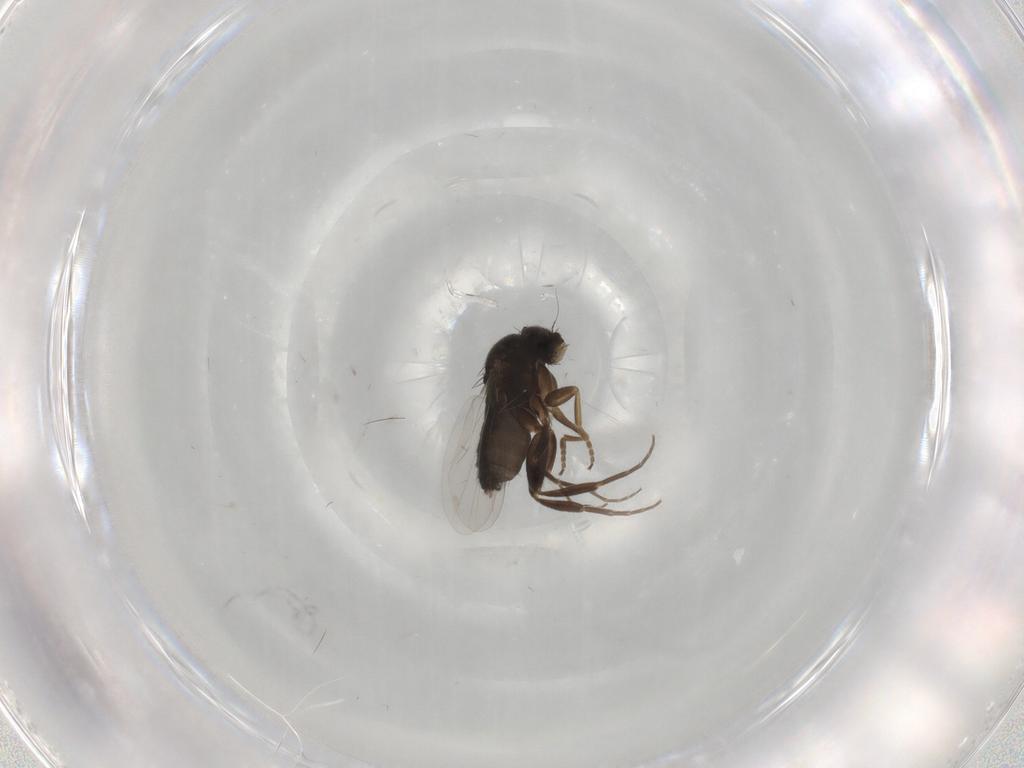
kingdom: Animalia
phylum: Arthropoda
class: Insecta
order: Diptera
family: Phoridae
